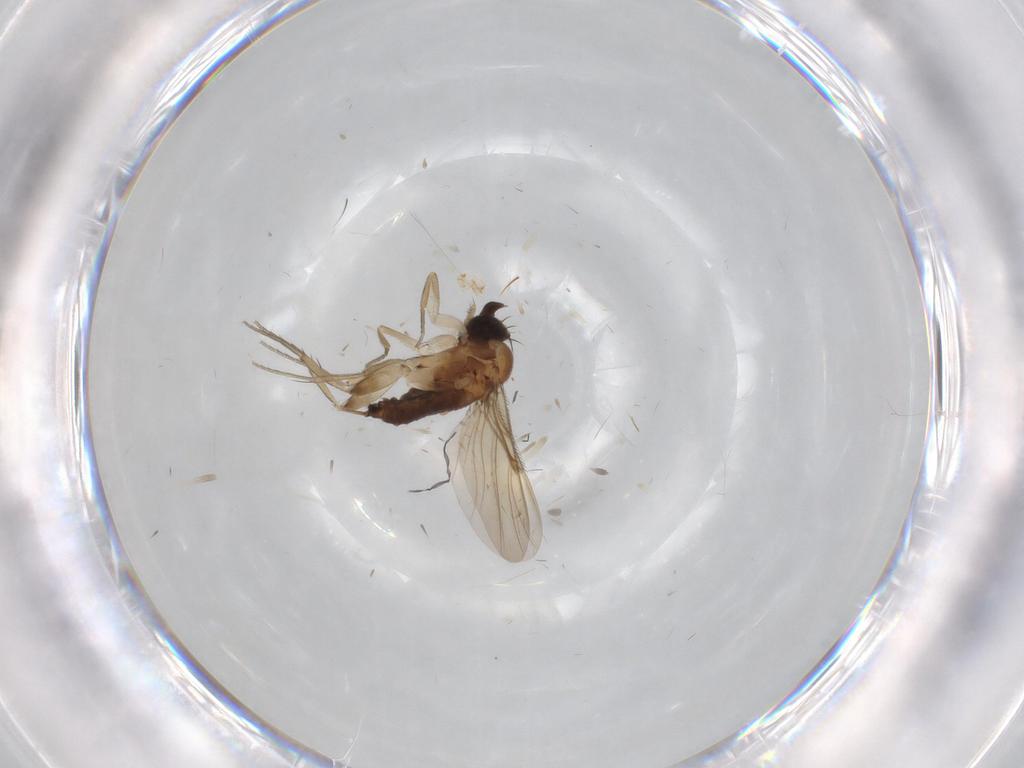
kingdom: Animalia
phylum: Arthropoda
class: Insecta
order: Diptera
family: Phoridae
